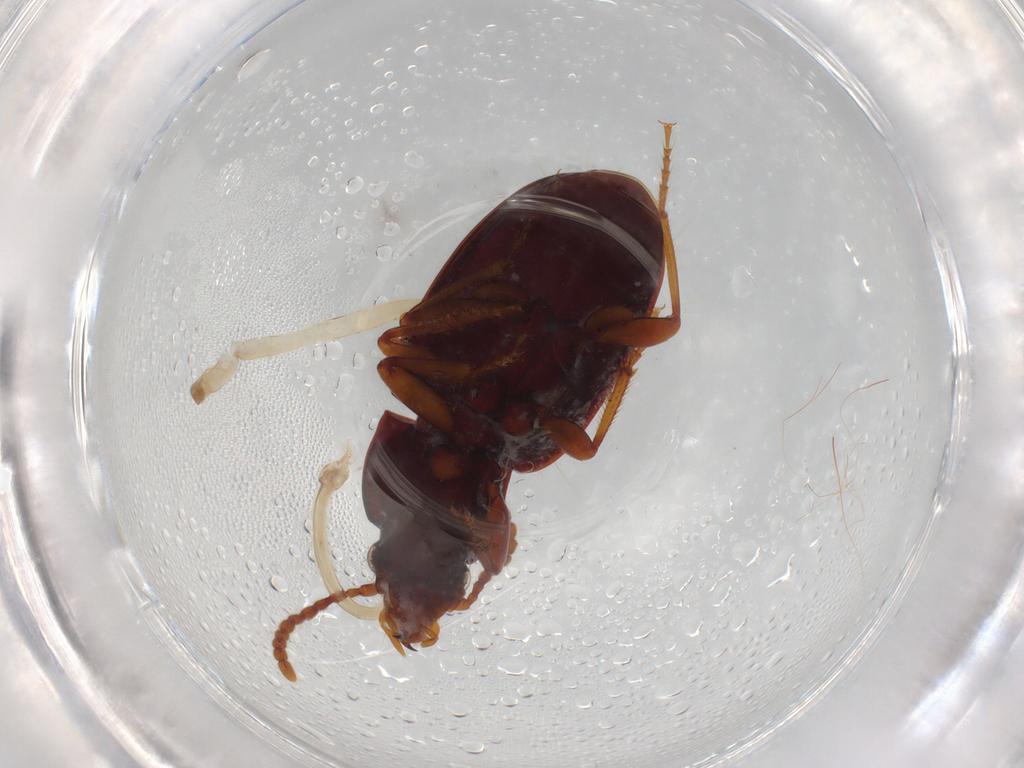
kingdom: Animalia
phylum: Arthropoda
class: Insecta
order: Coleoptera
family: Carabidae
